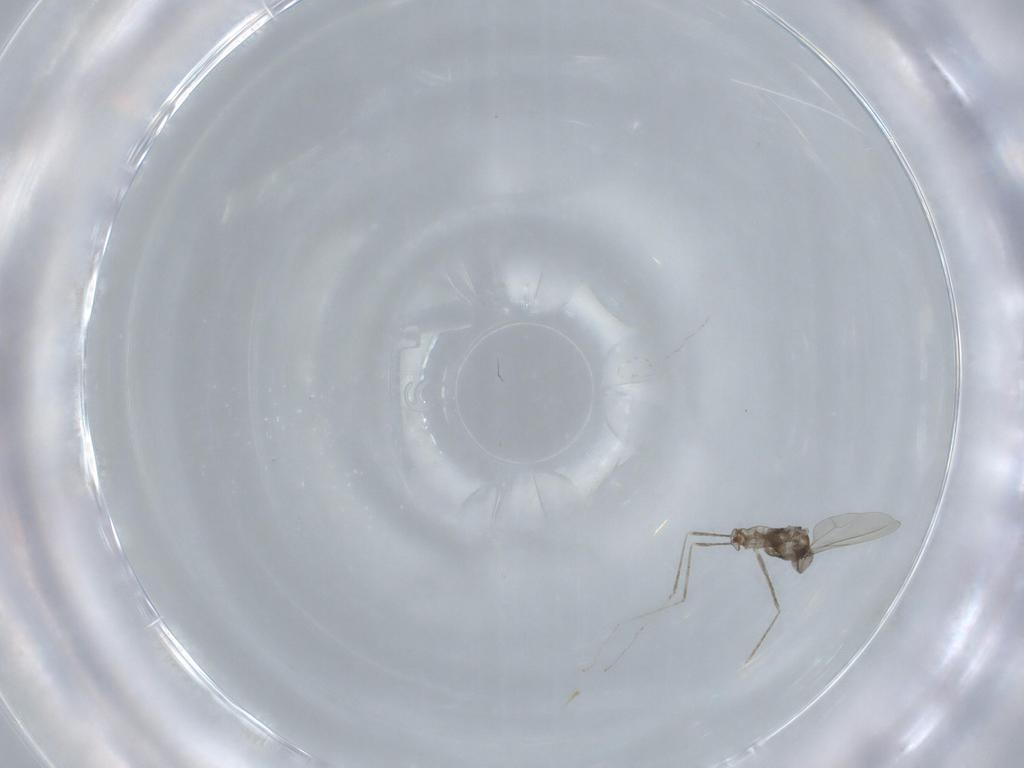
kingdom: Animalia
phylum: Arthropoda
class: Insecta
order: Diptera
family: Cecidomyiidae
